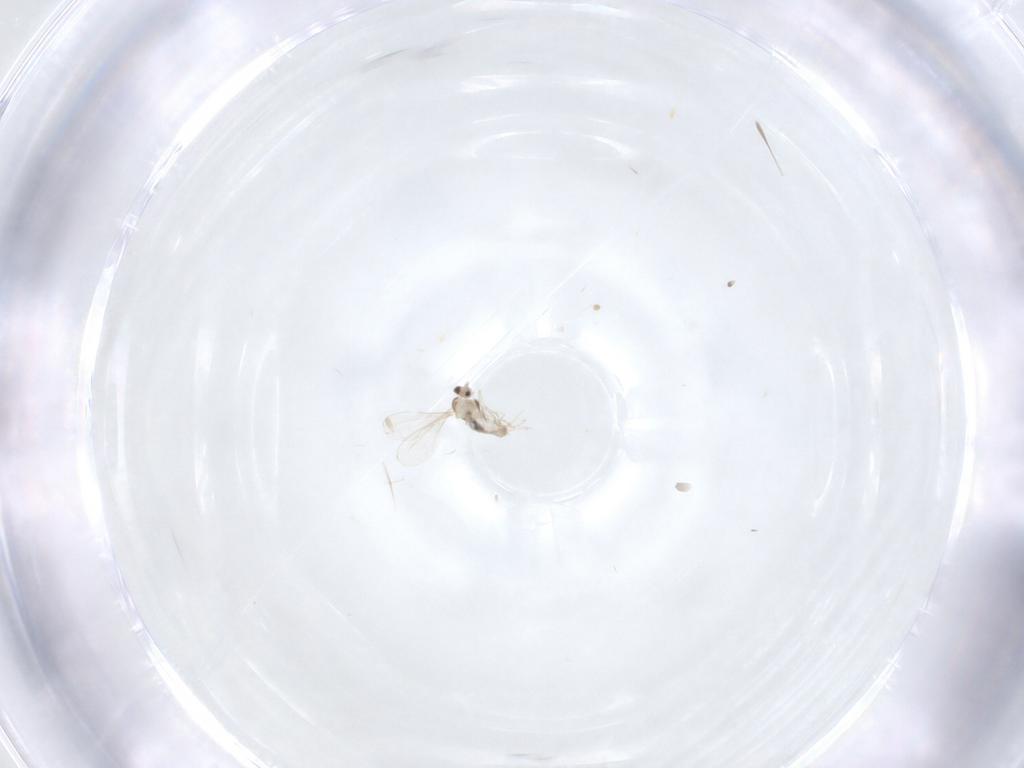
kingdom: Animalia
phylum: Arthropoda
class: Insecta
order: Diptera
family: Cecidomyiidae
